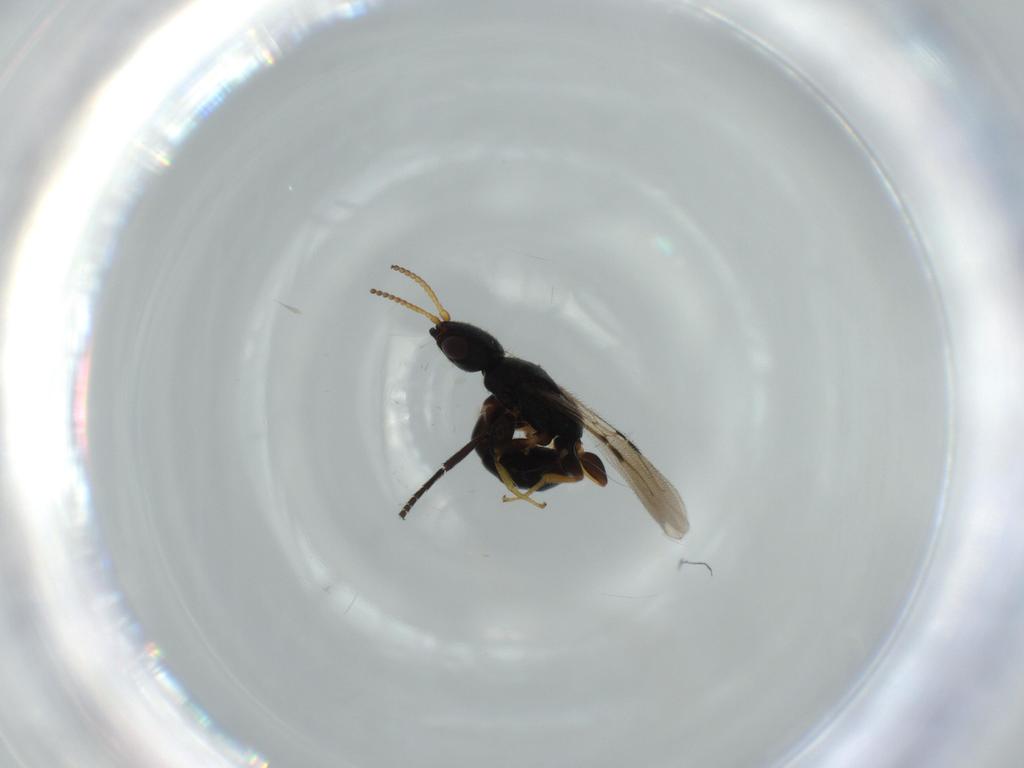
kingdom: Animalia
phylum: Arthropoda
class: Insecta
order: Hymenoptera
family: Bethylidae
